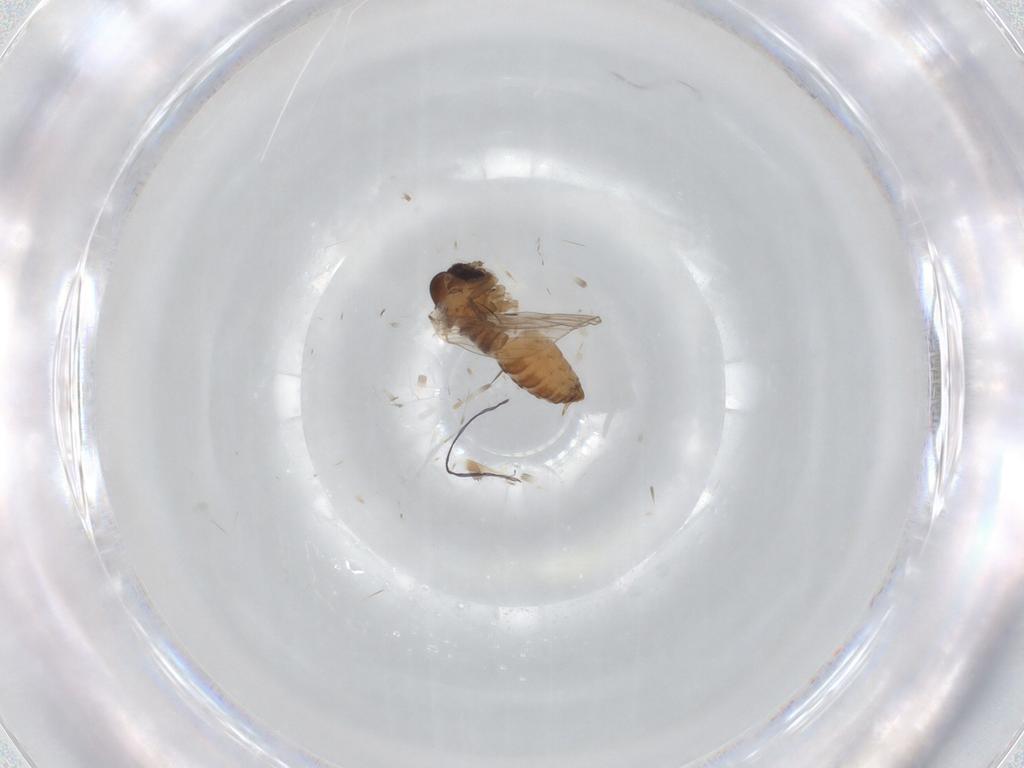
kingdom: Animalia
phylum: Arthropoda
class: Insecta
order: Diptera
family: Psychodidae
